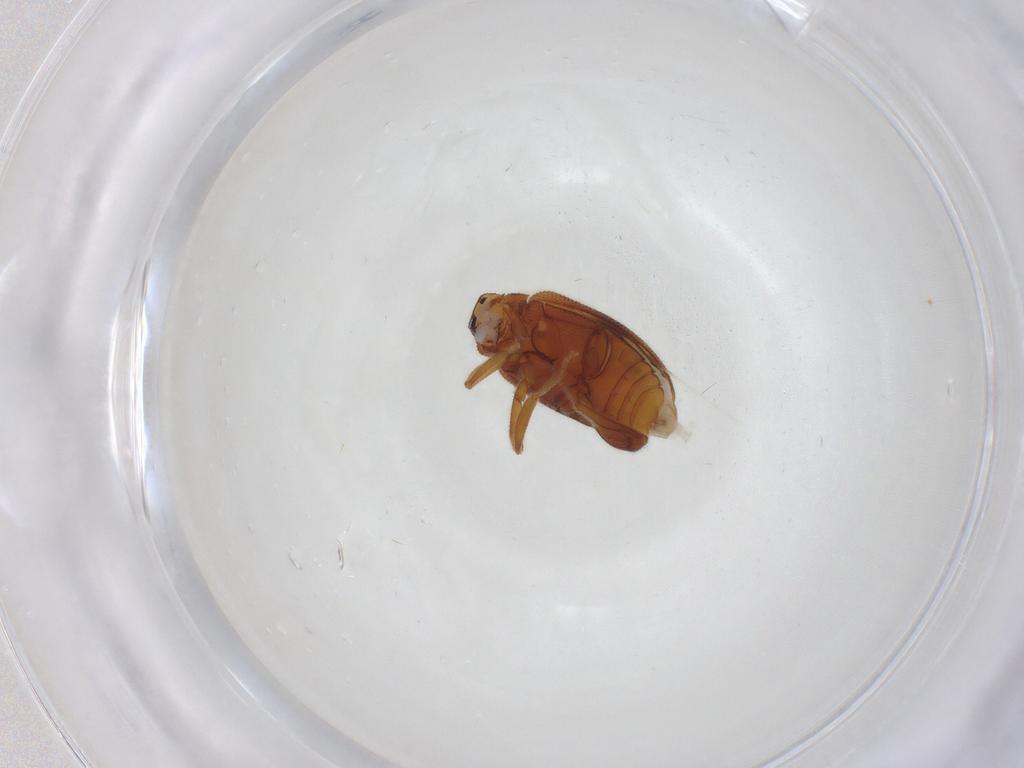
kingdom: Animalia
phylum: Arthropoda
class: Insecta
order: Coleoptera
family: Aderidae
